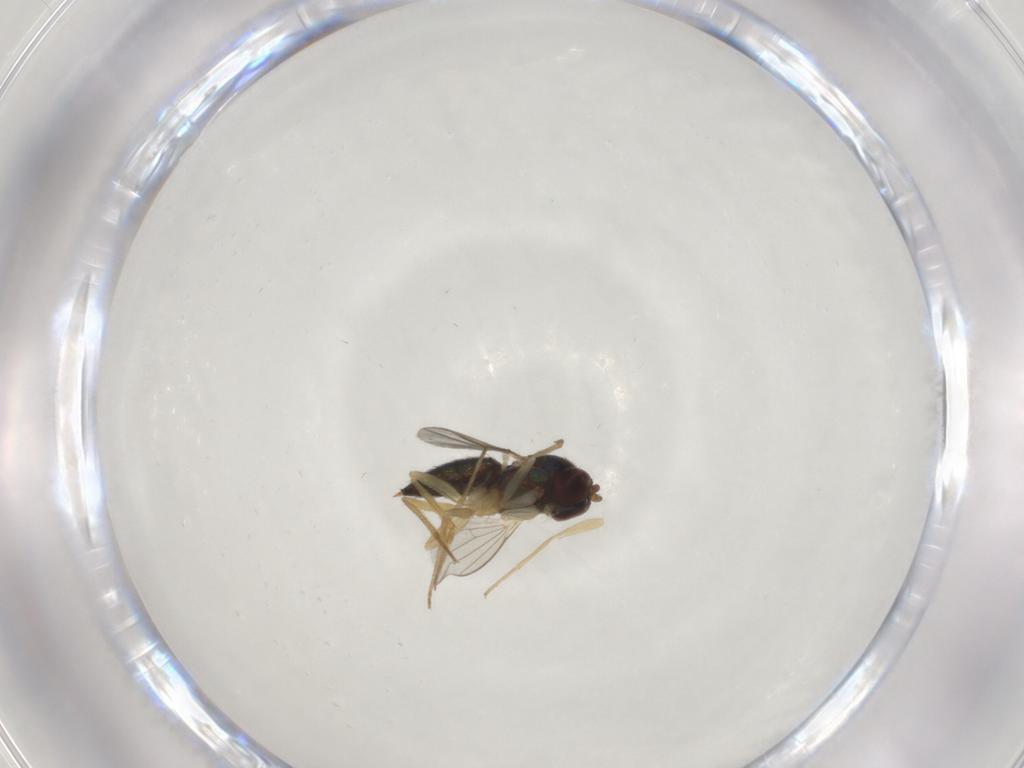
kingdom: Animalia
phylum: Arthropoda
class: Insecta
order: Diptera
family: Dolichopodidae
